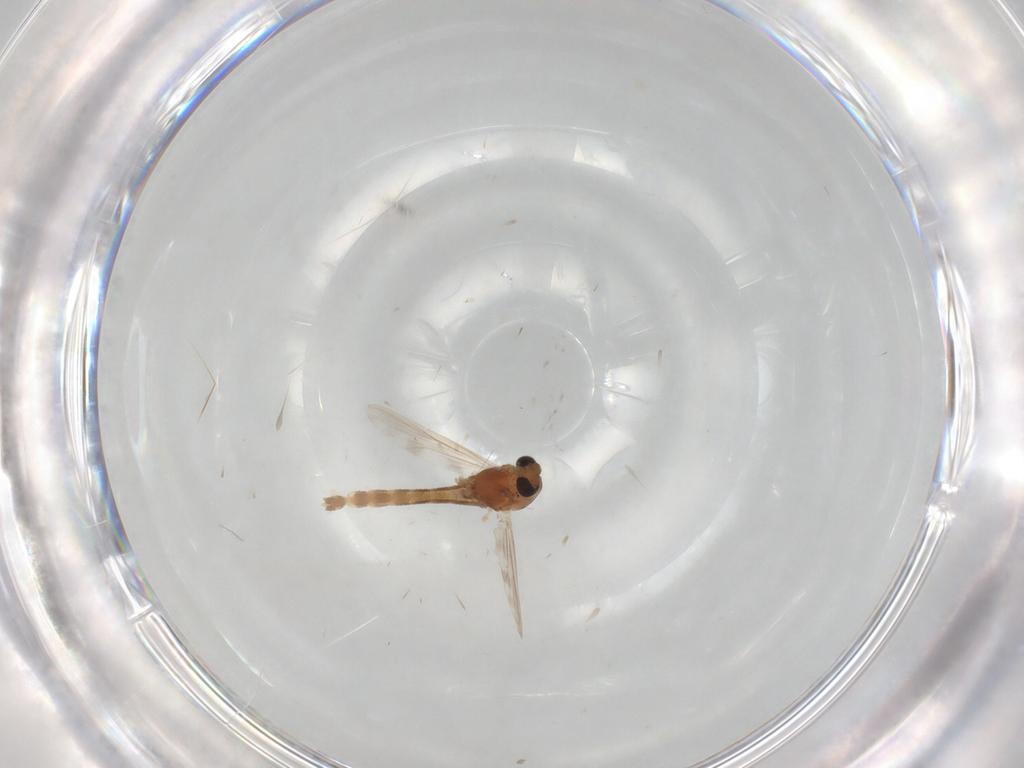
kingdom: Animalia
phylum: Arthropoda
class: Insecta
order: Diptera
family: Chironomidae
